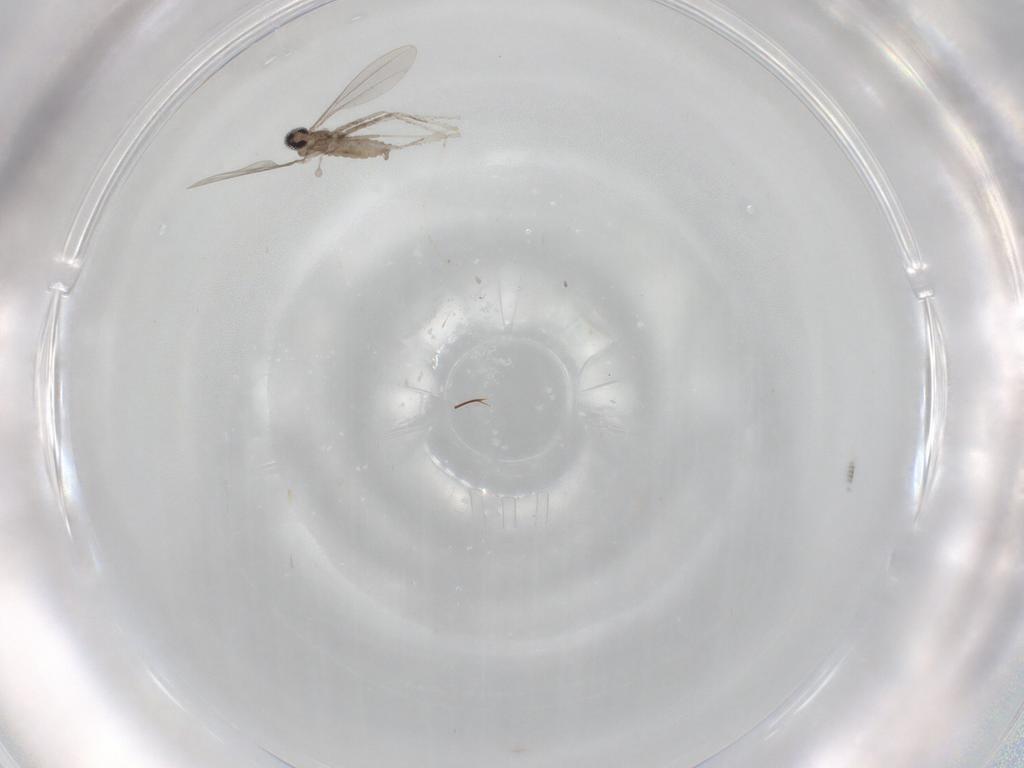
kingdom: Animalia
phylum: Arthropoda
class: Insecta
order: Diptera
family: Cecidomyiidae
